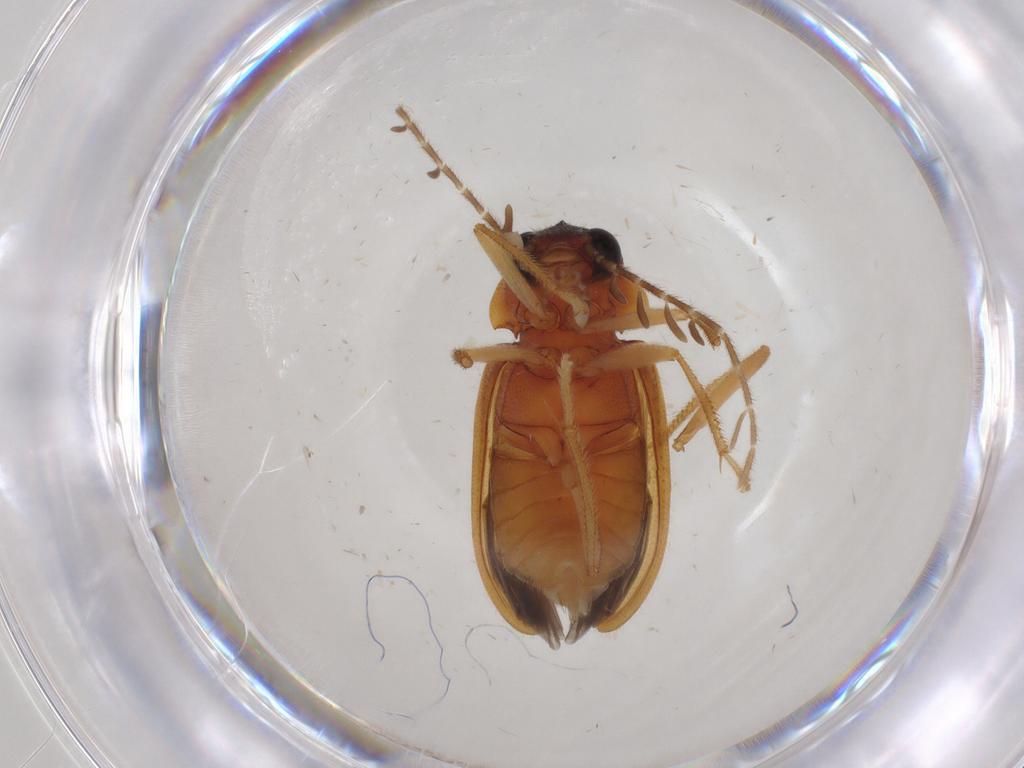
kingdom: Animalia
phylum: Arthropoda
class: Insecta
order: Coleoptera
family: Ptilodactylidae
